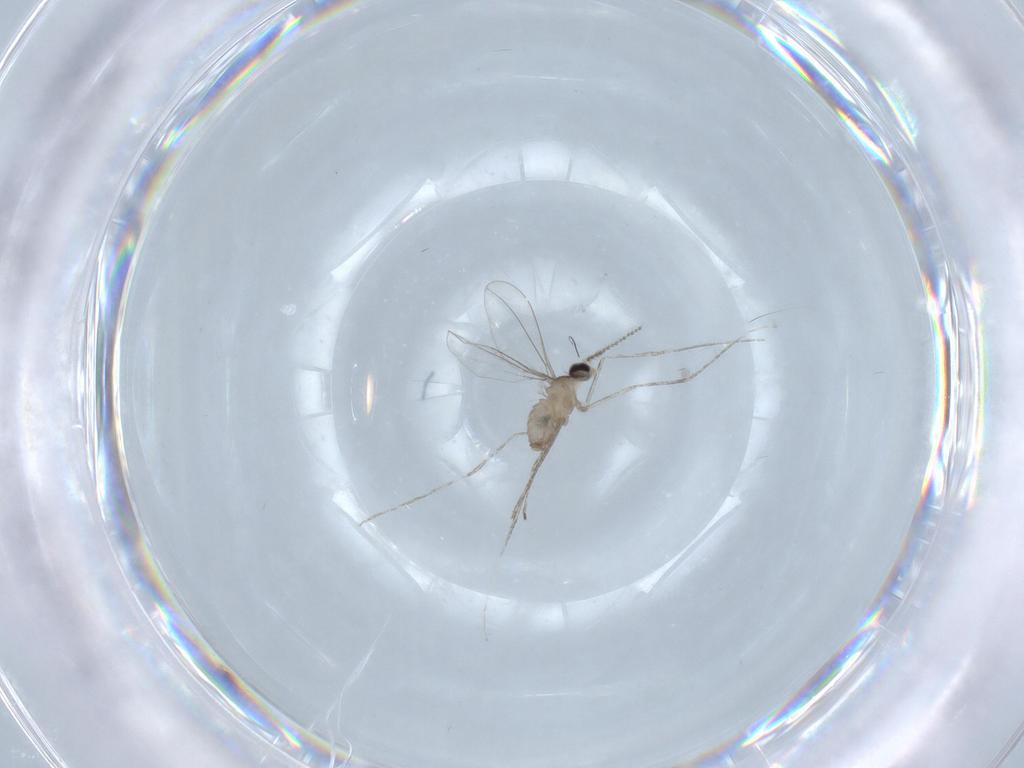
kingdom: Animalia
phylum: Arthropoda
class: Insecta
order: Diptera
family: Cecidomyiidae
